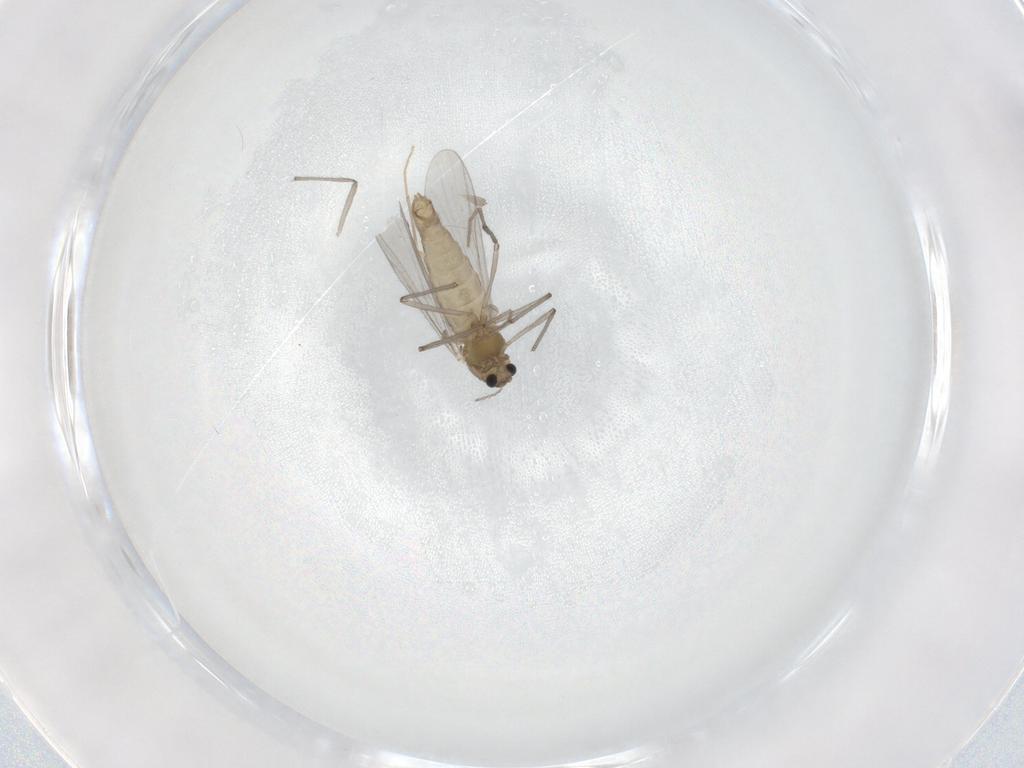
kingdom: Animalia
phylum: Arthropoda
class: Insecta
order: Diptera
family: Chironomidae
